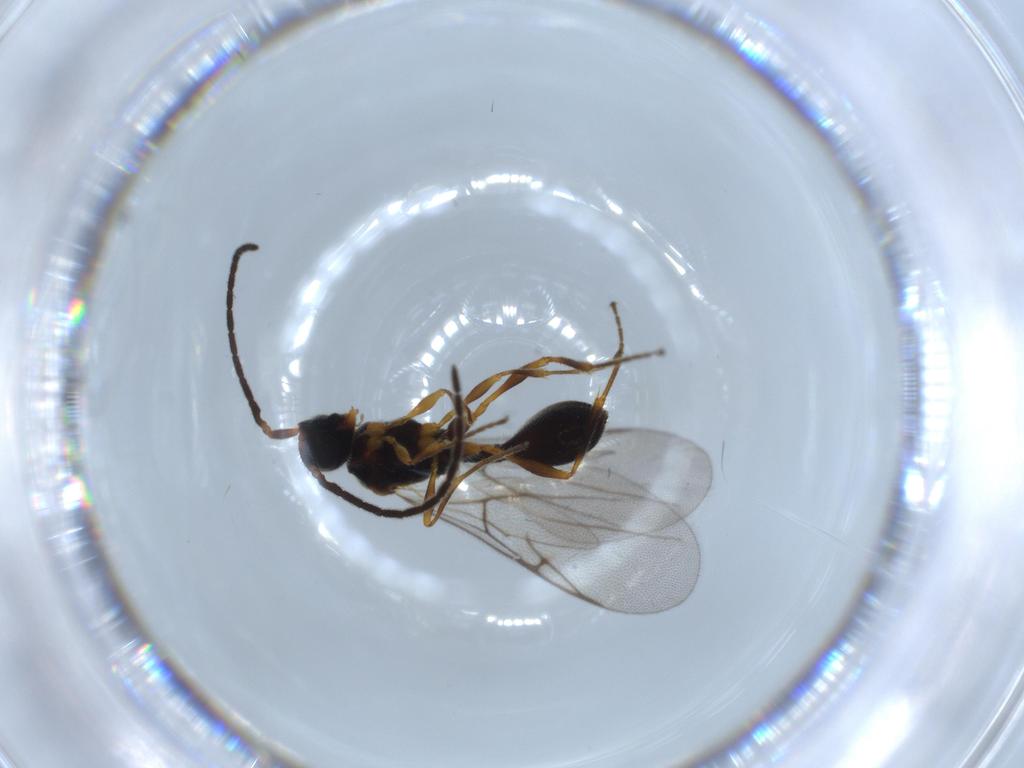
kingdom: Animalia
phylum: Arthropoda
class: Insecta
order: Hymenoptera
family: Diapriidae
